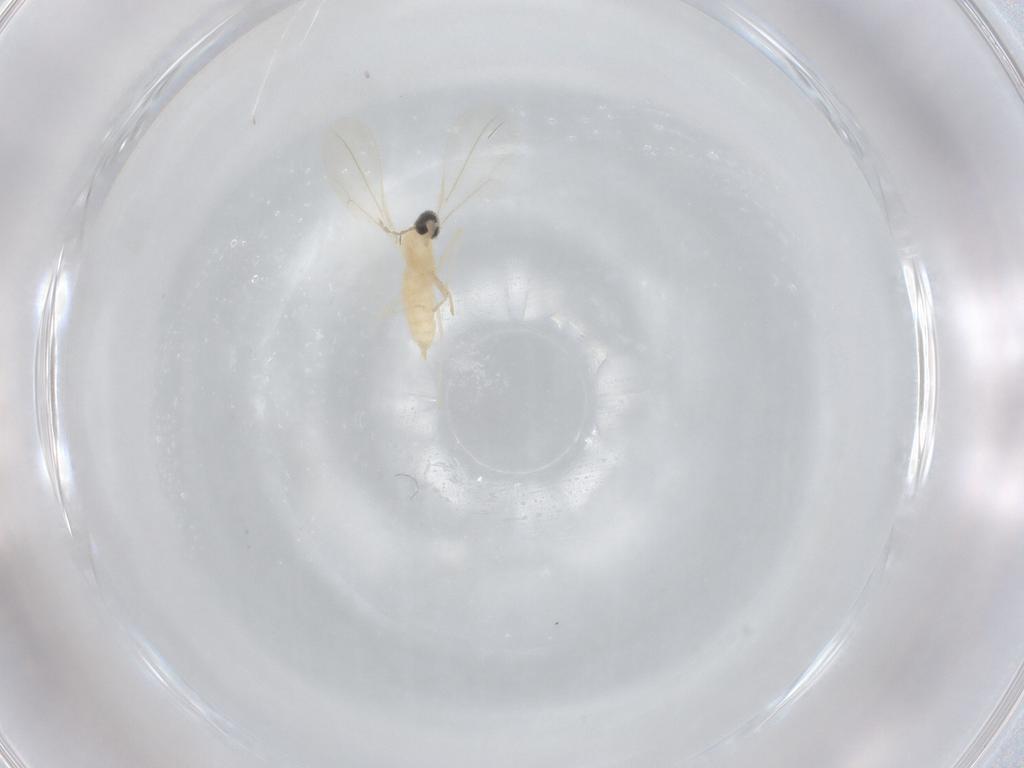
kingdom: Animalia
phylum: Arthropoda
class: Insecta
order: Diptera
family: Cecidomyiidae
